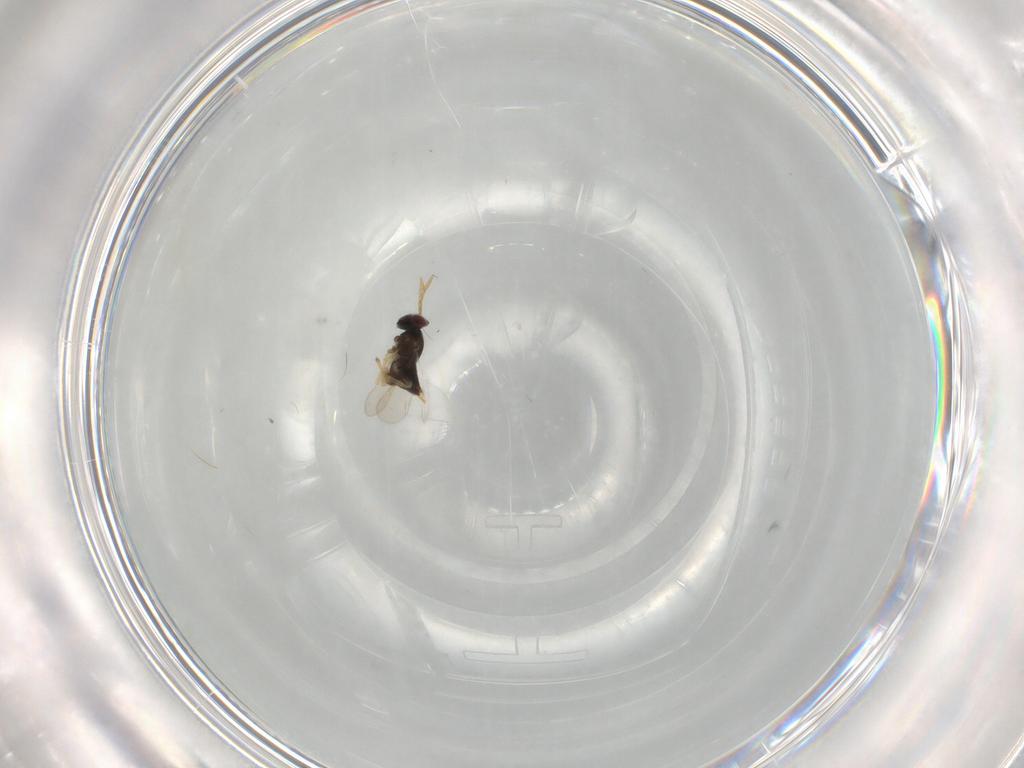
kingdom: Animalia
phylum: Arthropoda
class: Insecta
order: Hymenoptera
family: Aphelinidae
